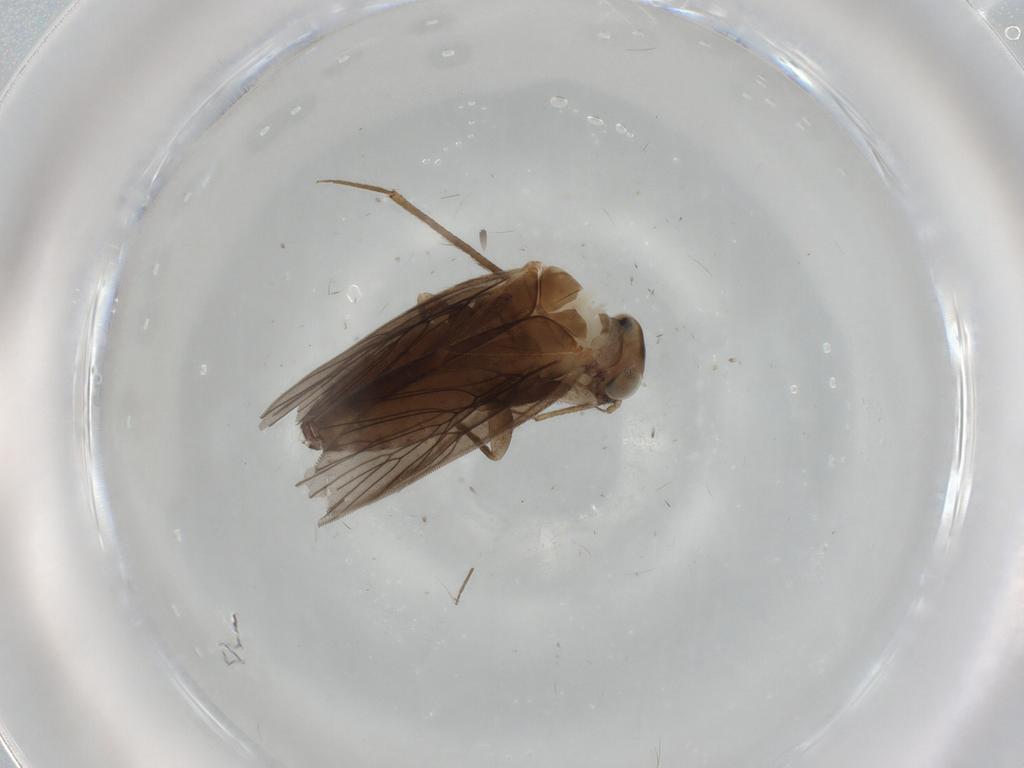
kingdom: Animalia
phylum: Arthropoda
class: Insecta
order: Psocodea
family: Lepidopsocidae
